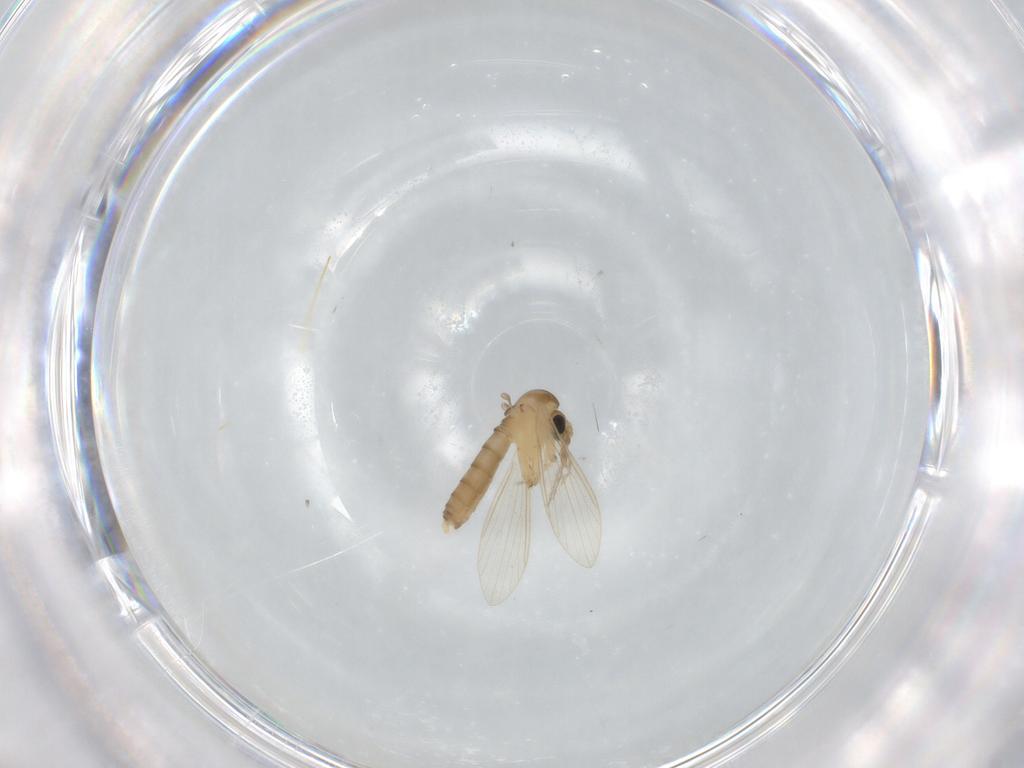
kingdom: Animalia
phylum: Arthropoda
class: Insecta
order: Diptera
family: Psychodidae
